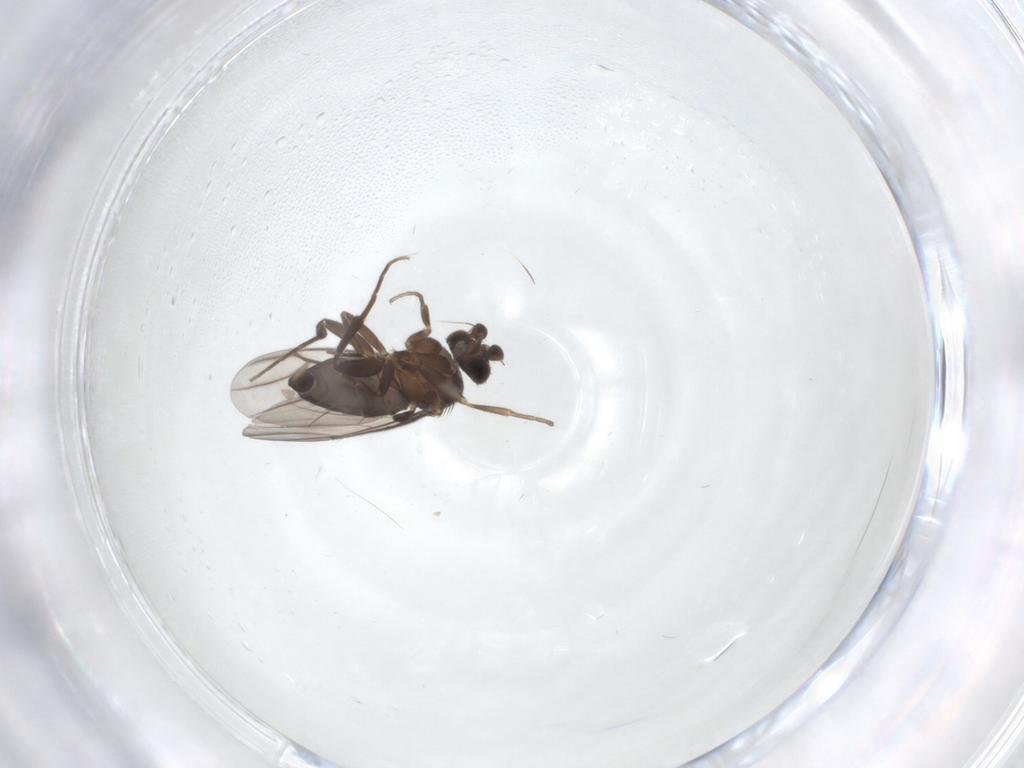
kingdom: Animalia
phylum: Arthropoda
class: Insecta
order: Diptera
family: Phoridae
